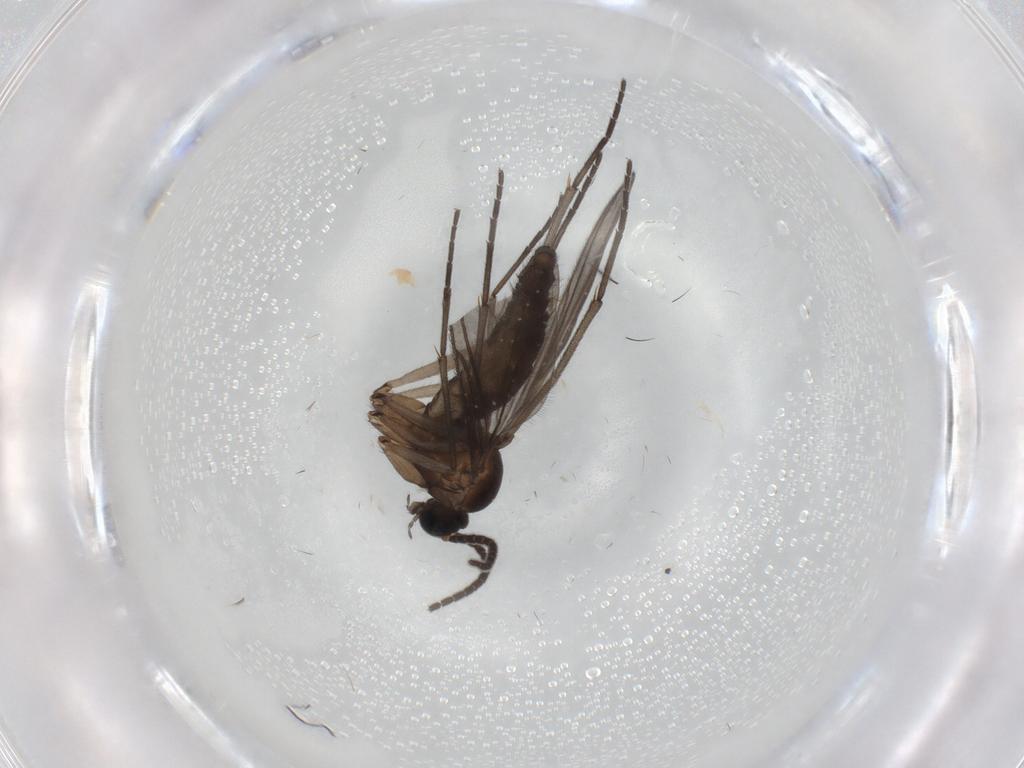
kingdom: Animalia
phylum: Arthropoda
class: Insecta
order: Diptera
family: Sciaridae
